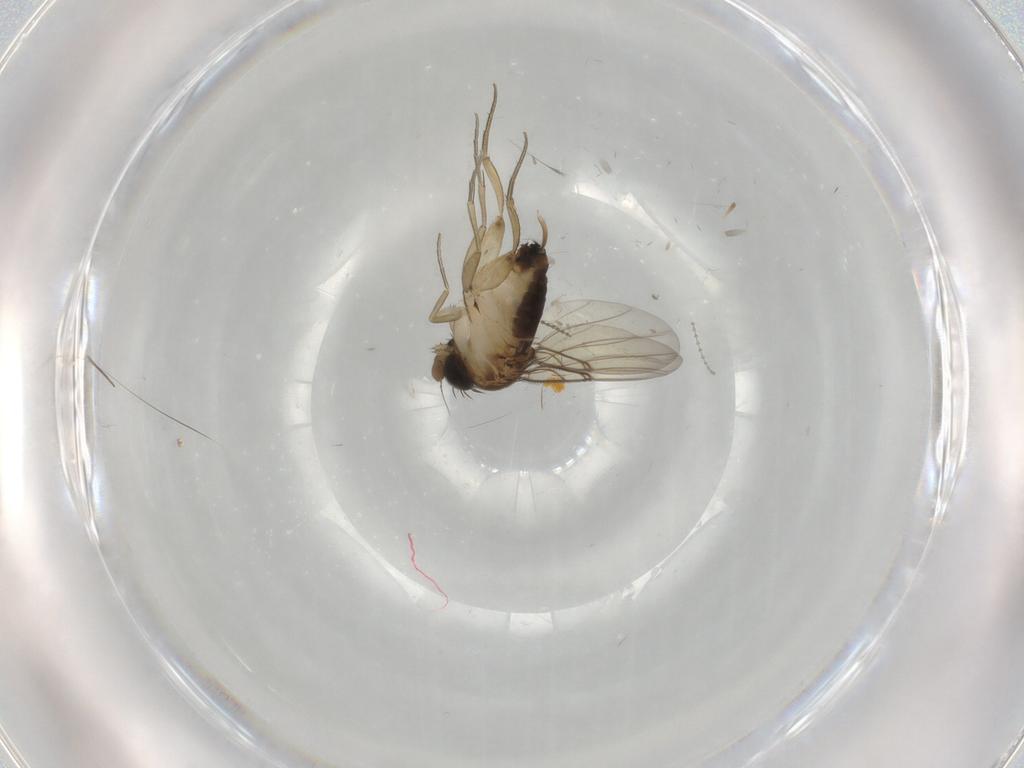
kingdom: Animalia
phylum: Arthropoda
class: Insecta
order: Diptera
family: Phoridae
